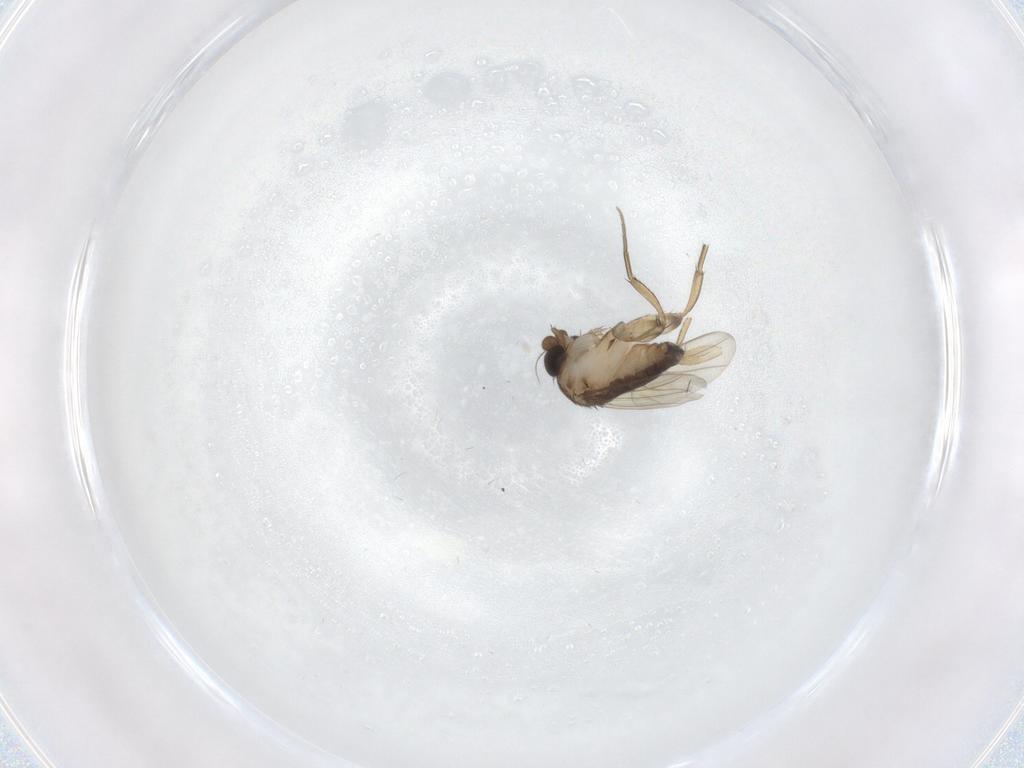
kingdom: Animalia
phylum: Arthropoda
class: Insecta
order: Diptera
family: Phoridae
